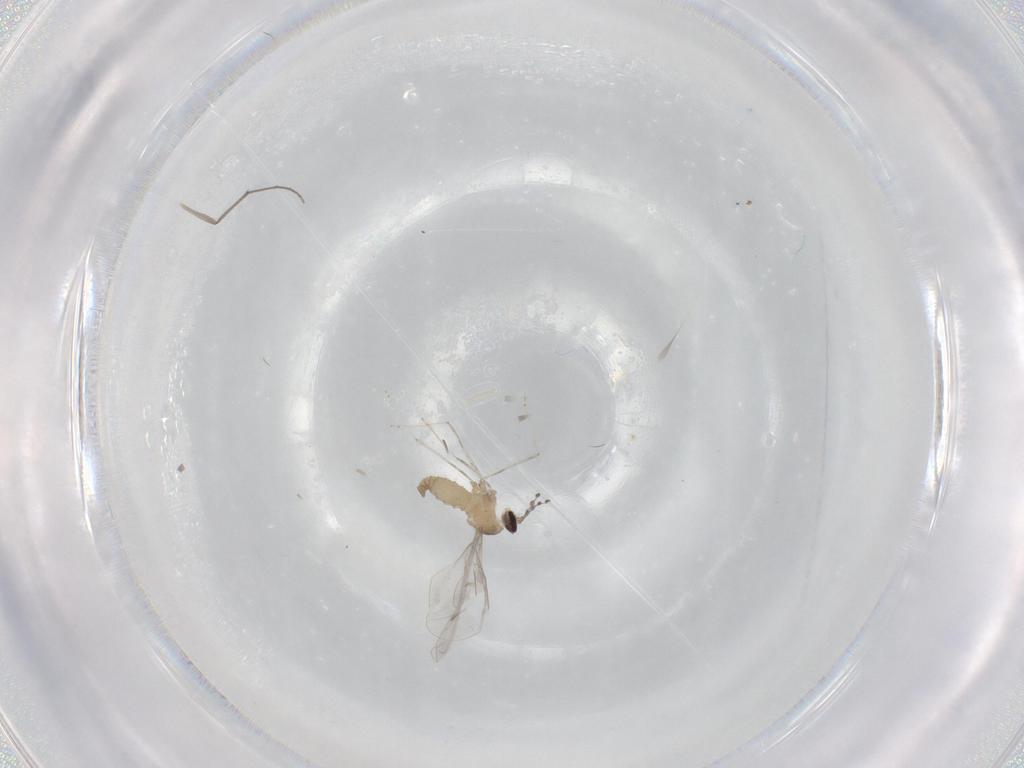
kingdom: Animalia
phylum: Arthropoda
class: Insecta
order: Diptera
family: Cecidomyiidae
